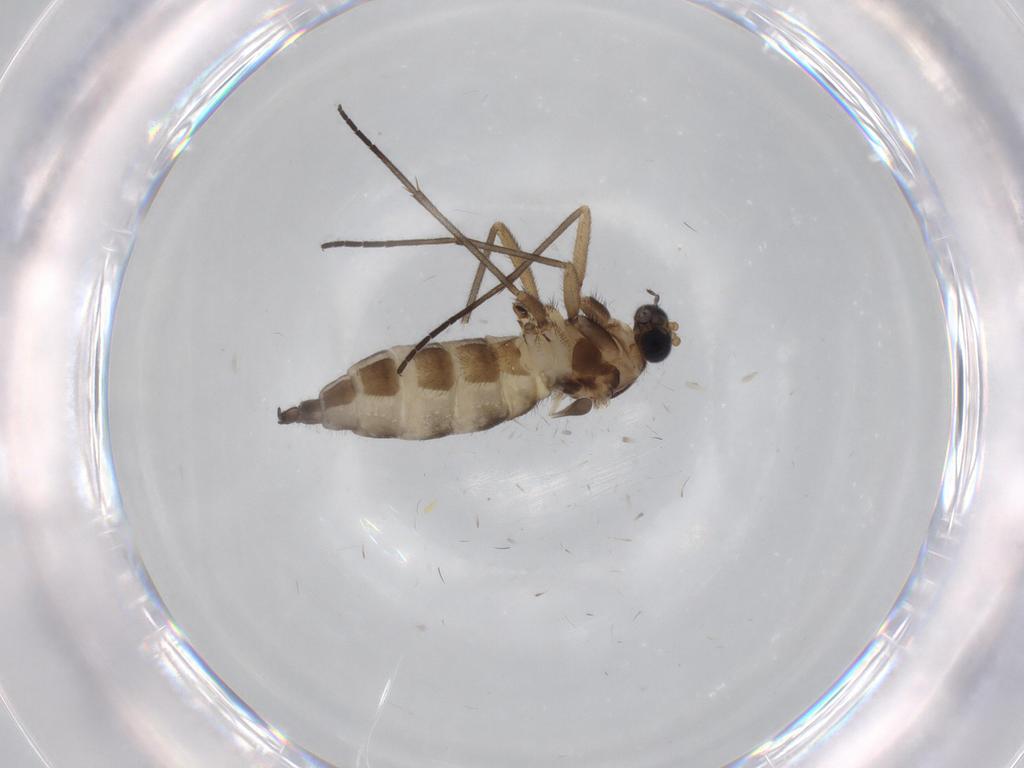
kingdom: Animalia
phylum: Arthropoda
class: Insecta
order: Diptera
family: Sciaridae
